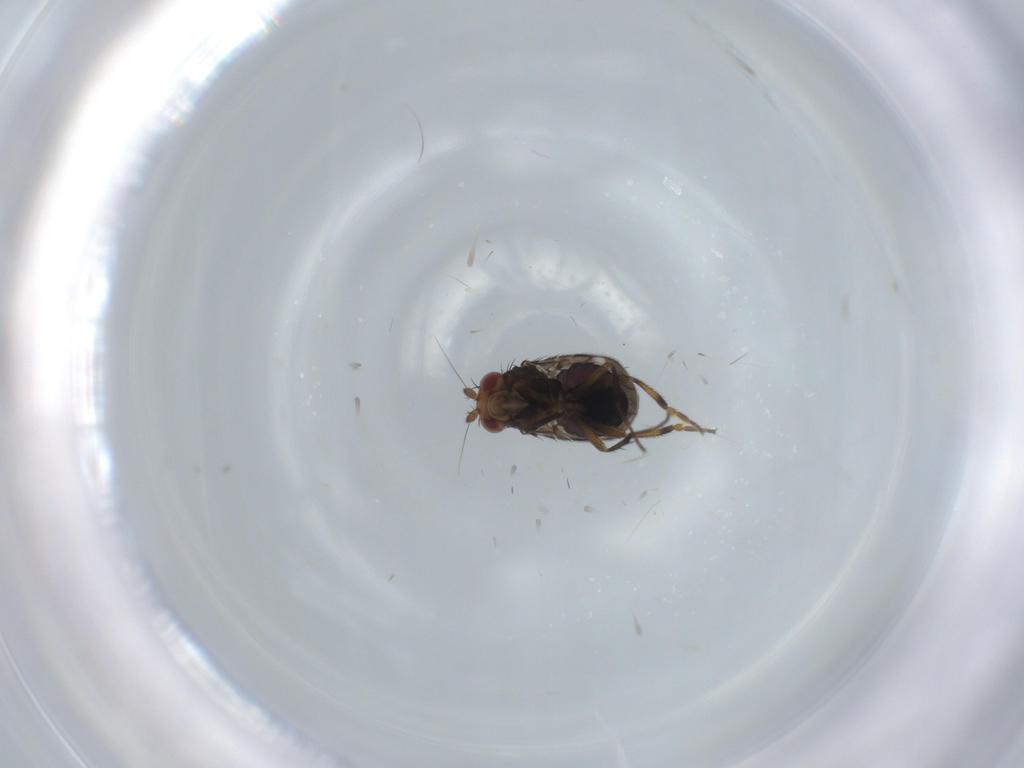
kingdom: Animalia
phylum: Arthropoda
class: Insecta
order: Diptera
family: Sphaeroceridae
